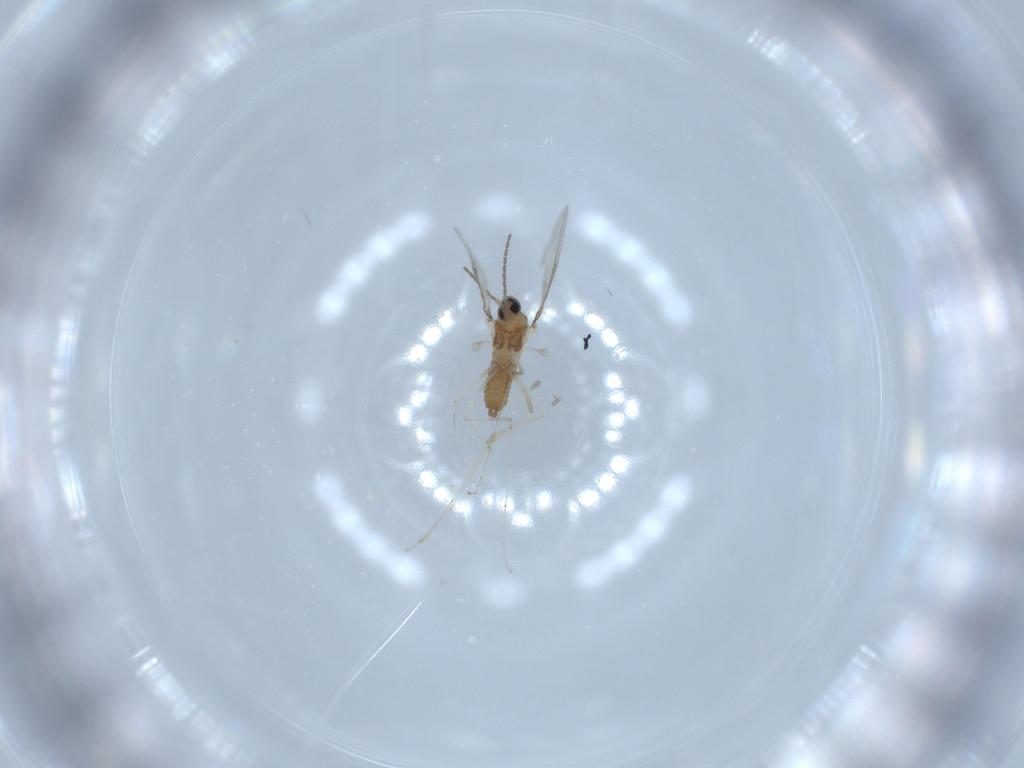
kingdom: Animalia
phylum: Arthropoda
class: Insecta
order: Diptera
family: Cecidomyiidae
